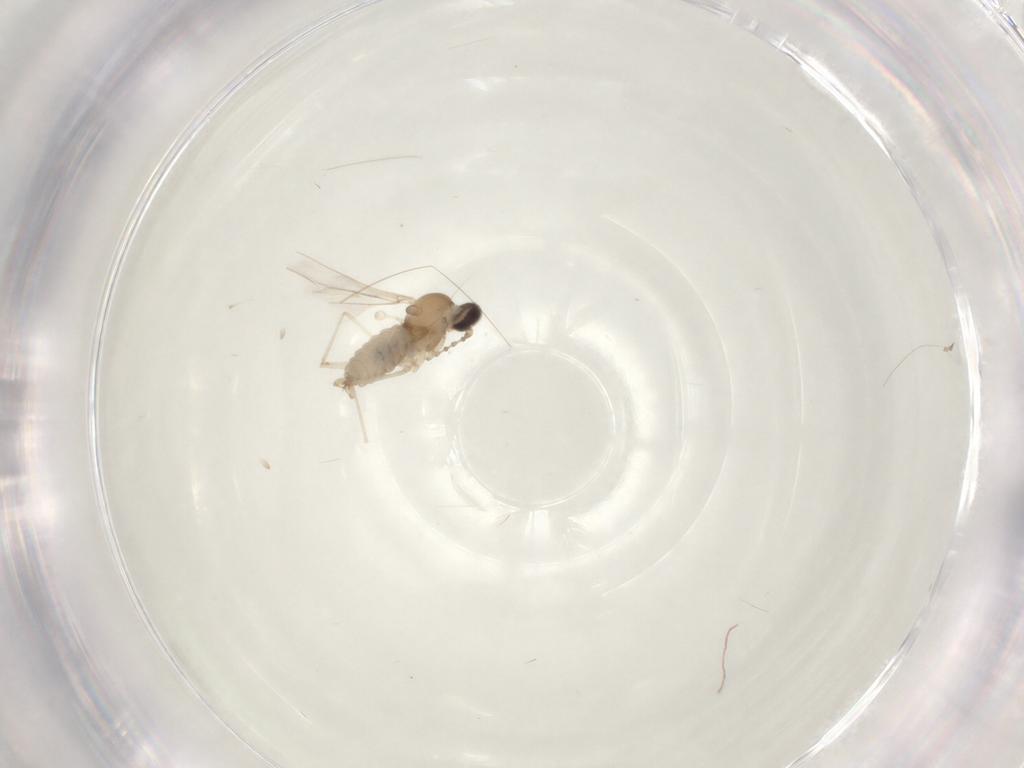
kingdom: Animalia
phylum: Arthropoda
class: Insecta
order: Diptera
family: Cecidomyiidae
